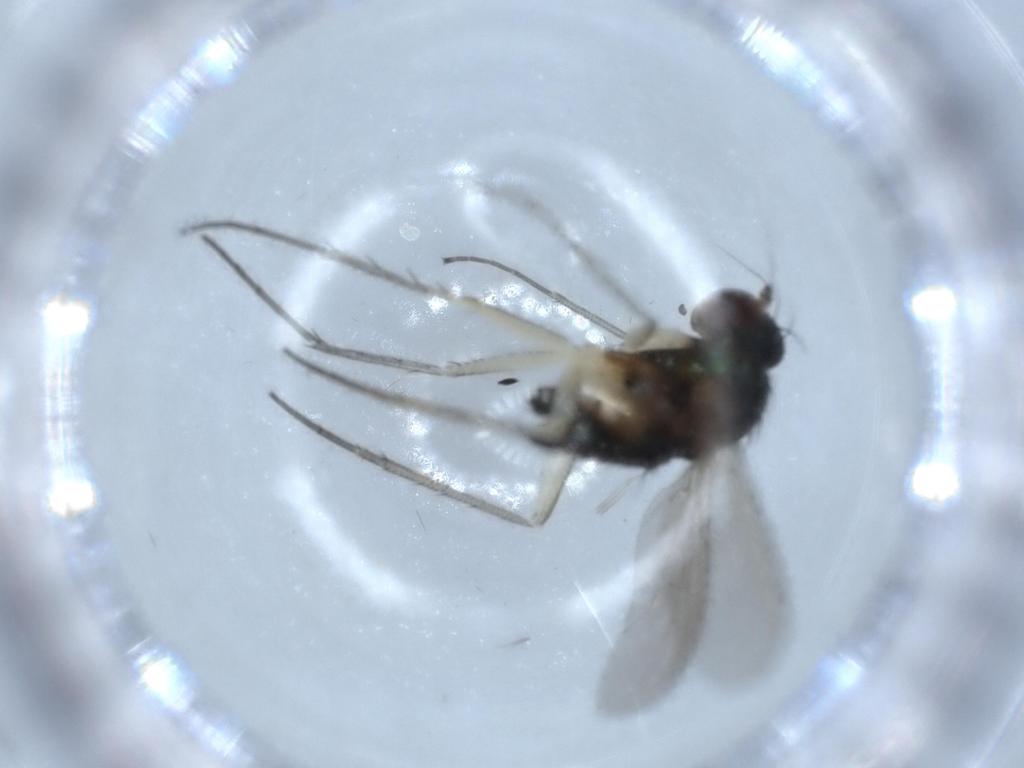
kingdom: Animalia
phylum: Arthropoda
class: Insecta
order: Diptera
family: Dolichopodidae
